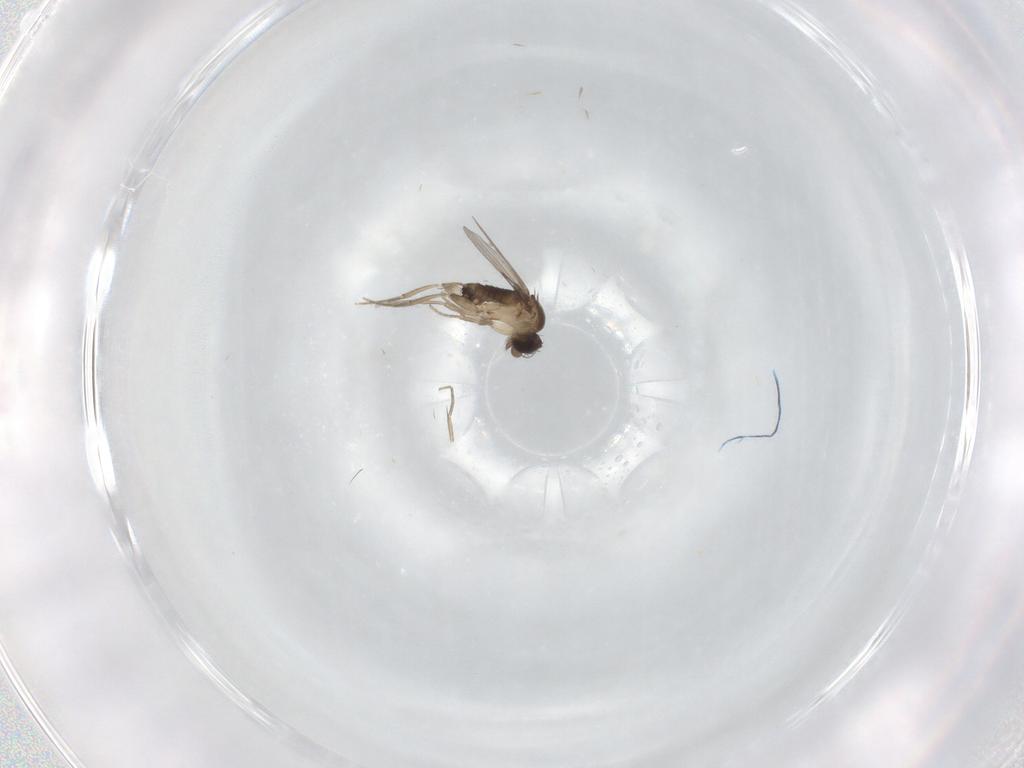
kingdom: Animalia
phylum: Arthropoda
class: Insecta
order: Diptera
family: Phoridae
